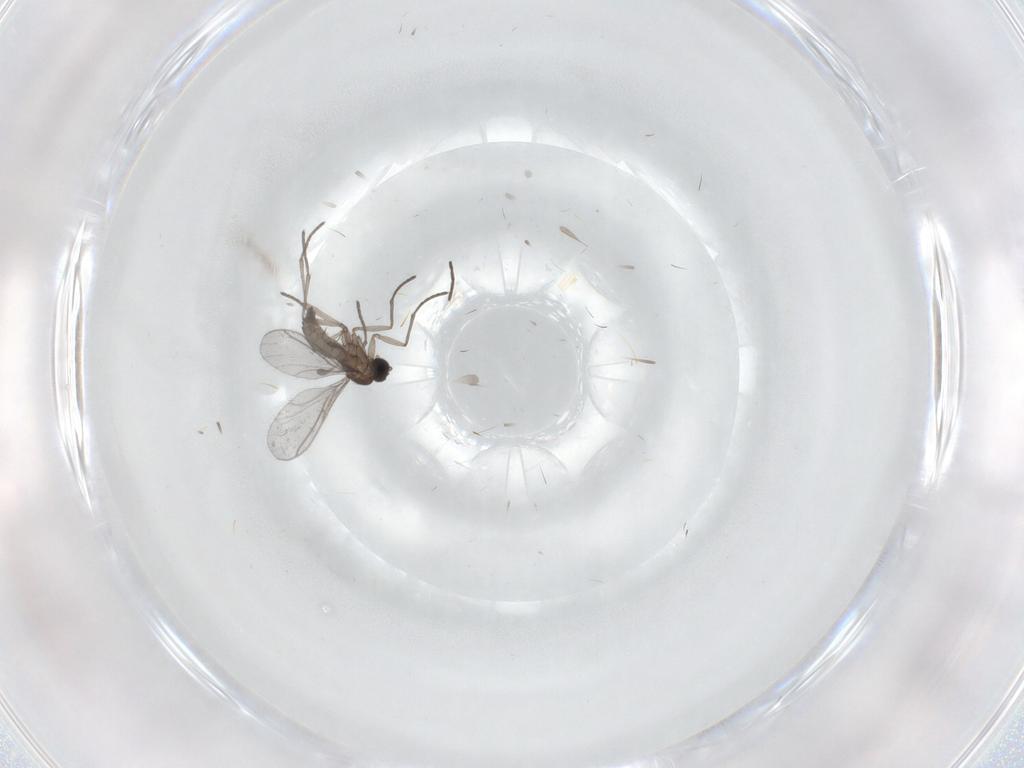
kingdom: Animalia
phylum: Arthropoda
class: Insecta
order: Diptera
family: Sciaridae
